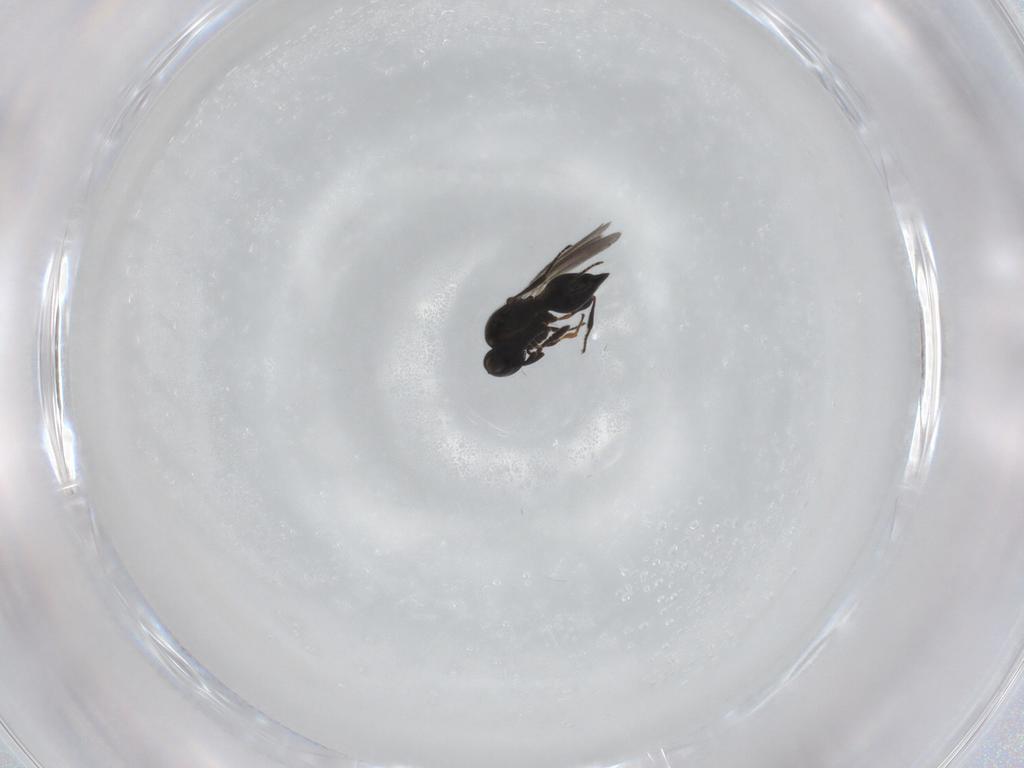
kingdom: Animalia
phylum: Arthropoda
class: Insecta
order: Hymenoptera
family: Platygastridae
